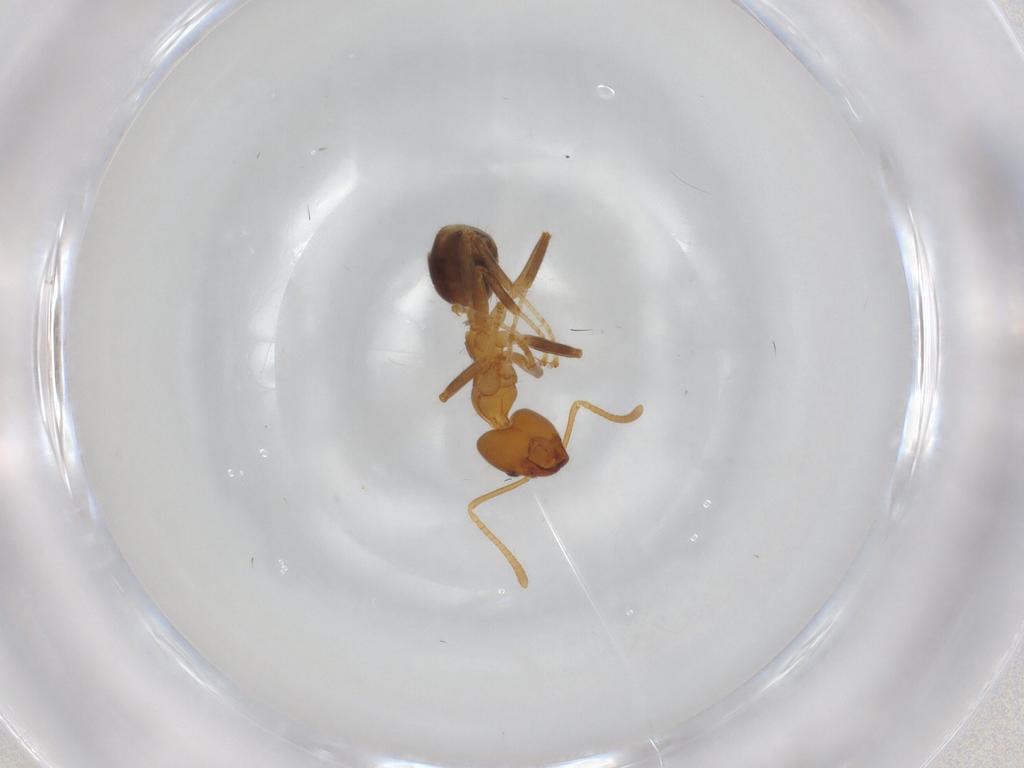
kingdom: Animalia
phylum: Arthropoda
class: Insecta
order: Hymenoptera
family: Formicidae
